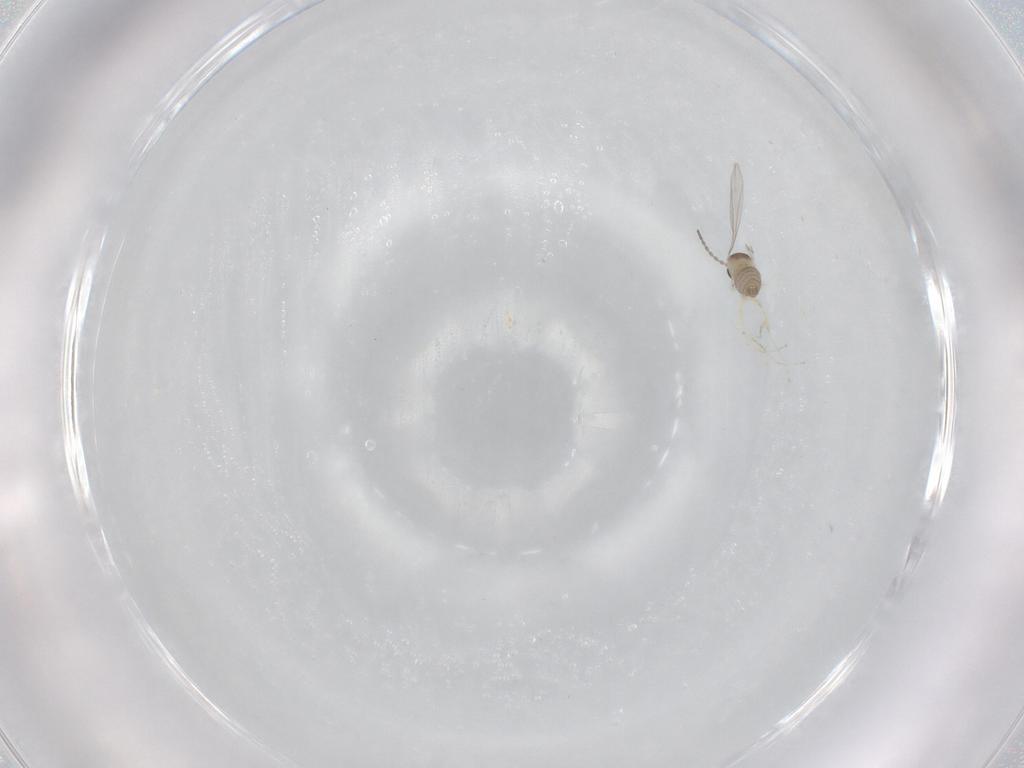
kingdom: Animalia
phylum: Arthropoda
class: Insecta
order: Diptera
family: Cecidomyiidae
